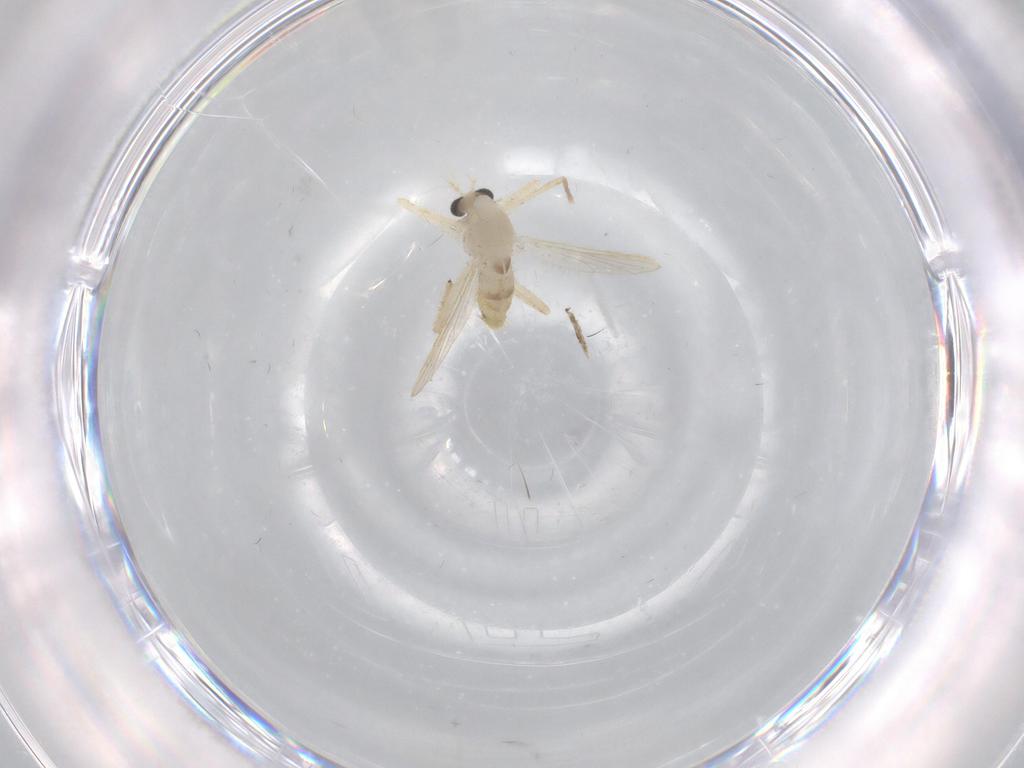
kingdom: Animalia
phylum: Arthropoda
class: Insecta
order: Diptera
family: Chironomidae
